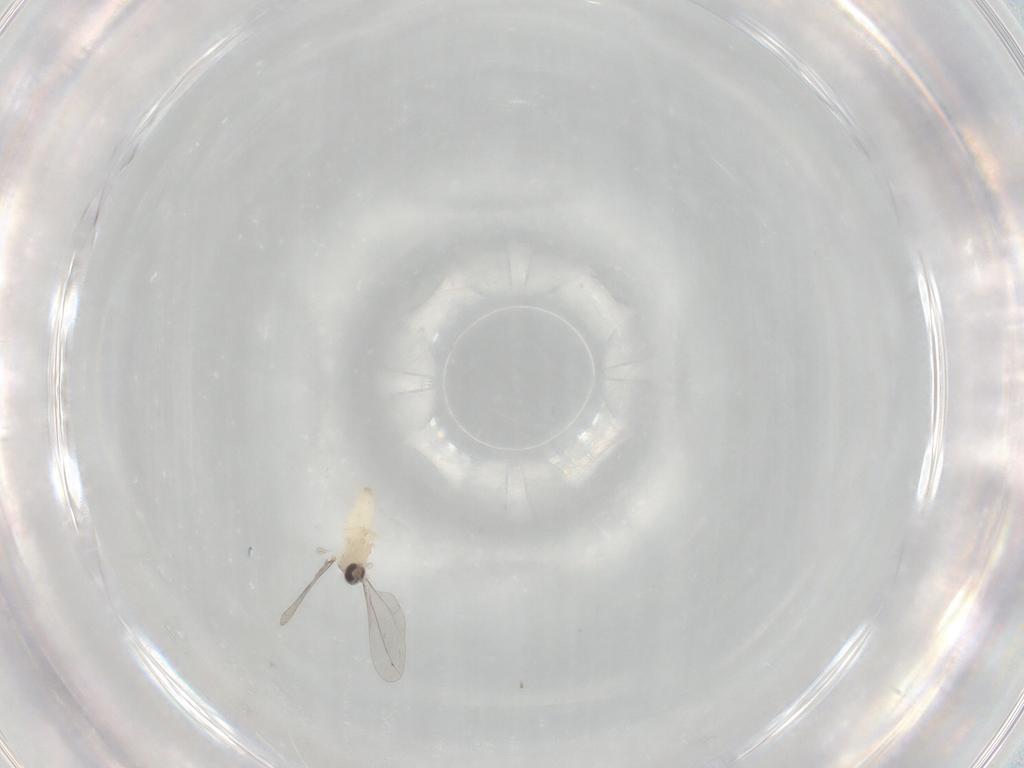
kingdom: Animalia
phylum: Arthropoda
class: Insecta
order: Diptera
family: Cecidomyiidae
